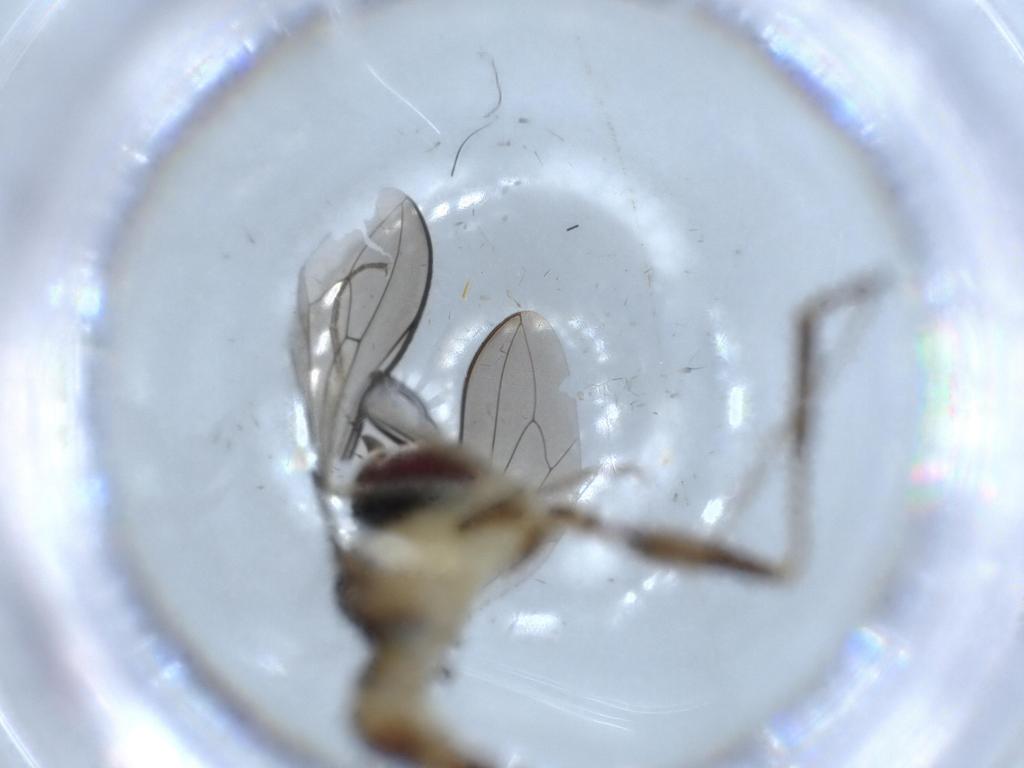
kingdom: Animalia
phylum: Arthropoda
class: Insecta
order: Diptera
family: Conopidae
